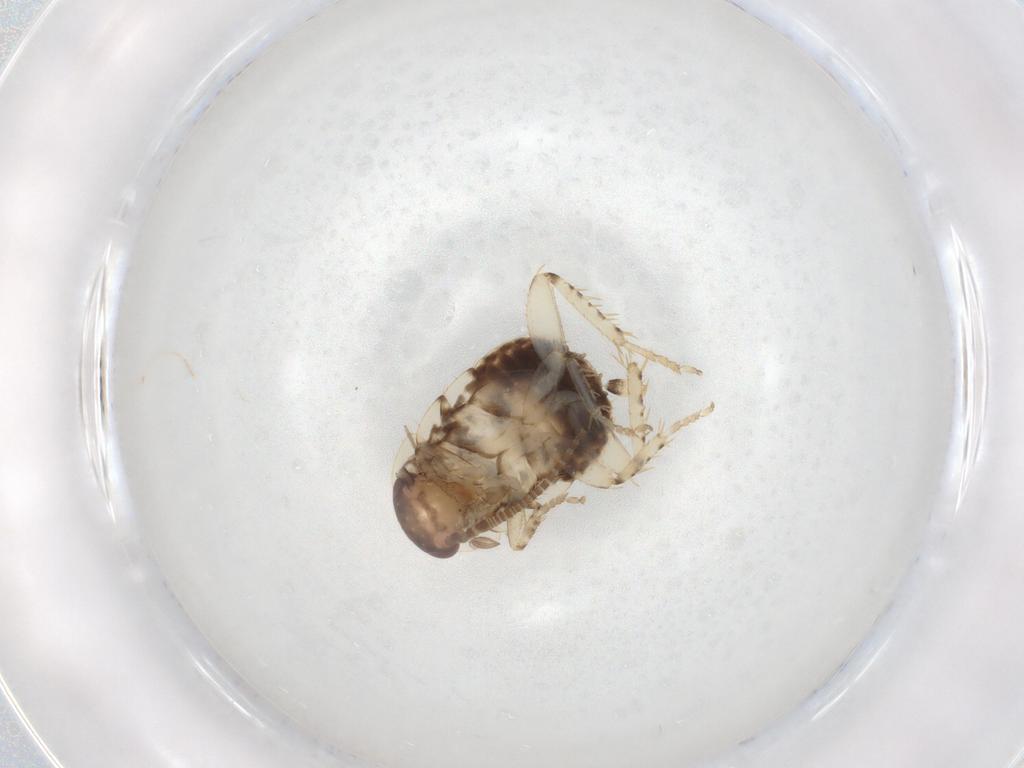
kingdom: Animalia
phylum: Arthropoda
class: Insecta
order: Blattodea
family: Ectobiidae
